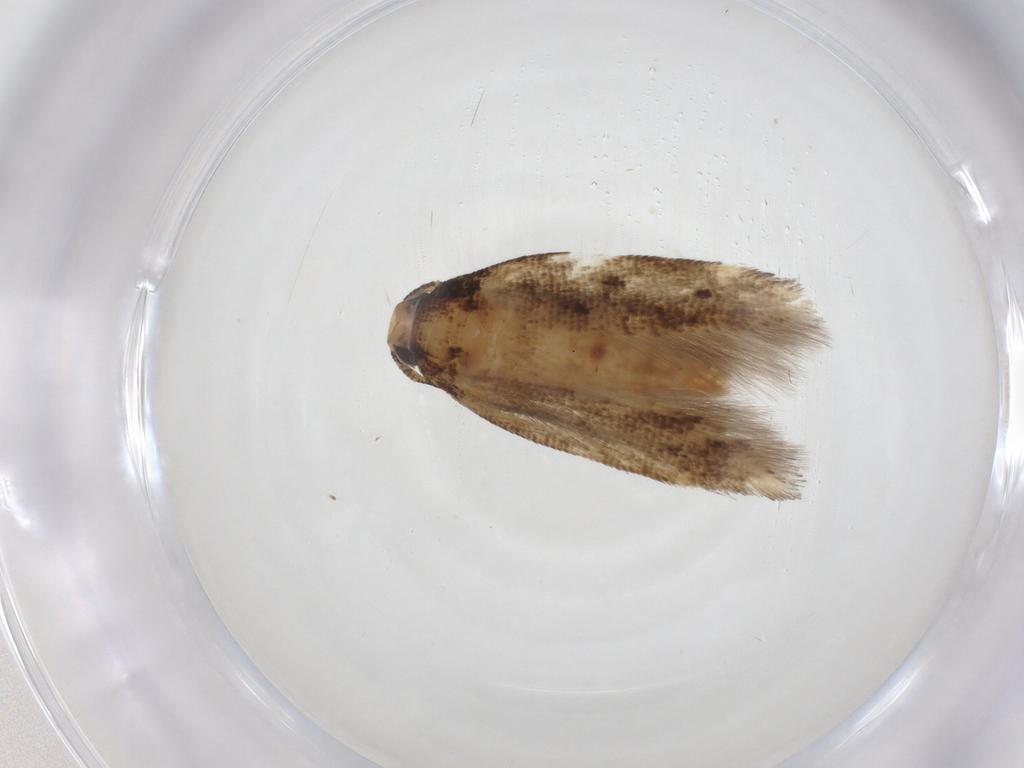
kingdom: Animalia
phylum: Arthropoda
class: Insecta
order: Lepidoptera
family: Gelechiidae
